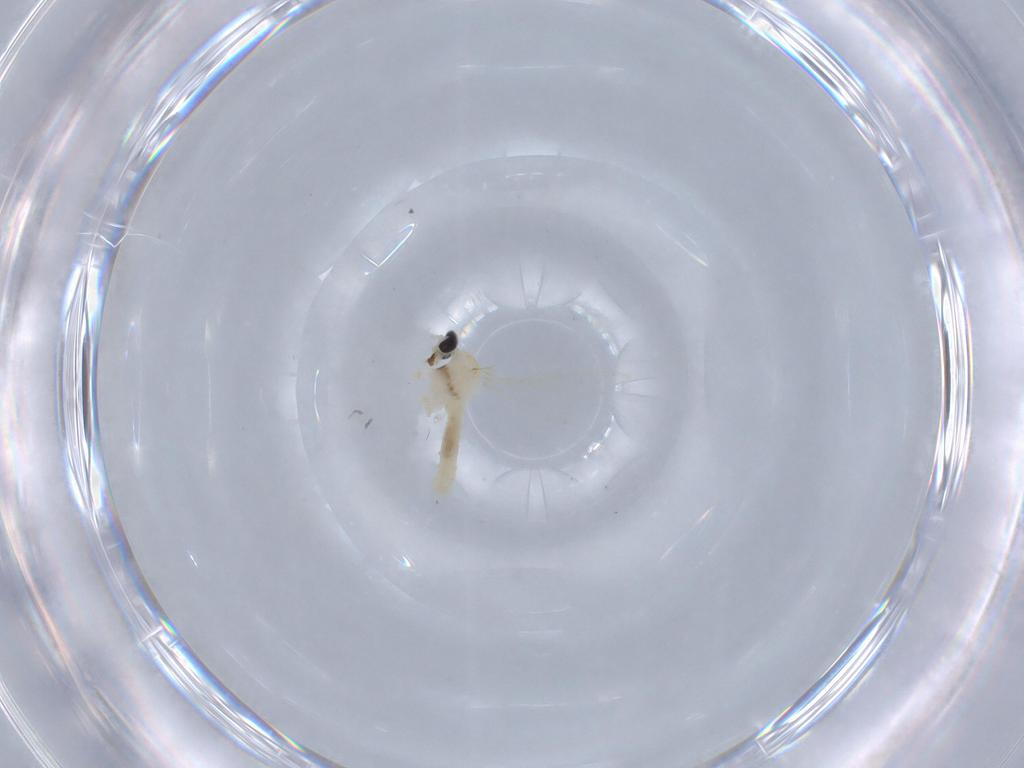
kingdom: Animalia
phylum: Arthropoda
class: Insecta
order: Diptera
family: Cecidomyiidae
